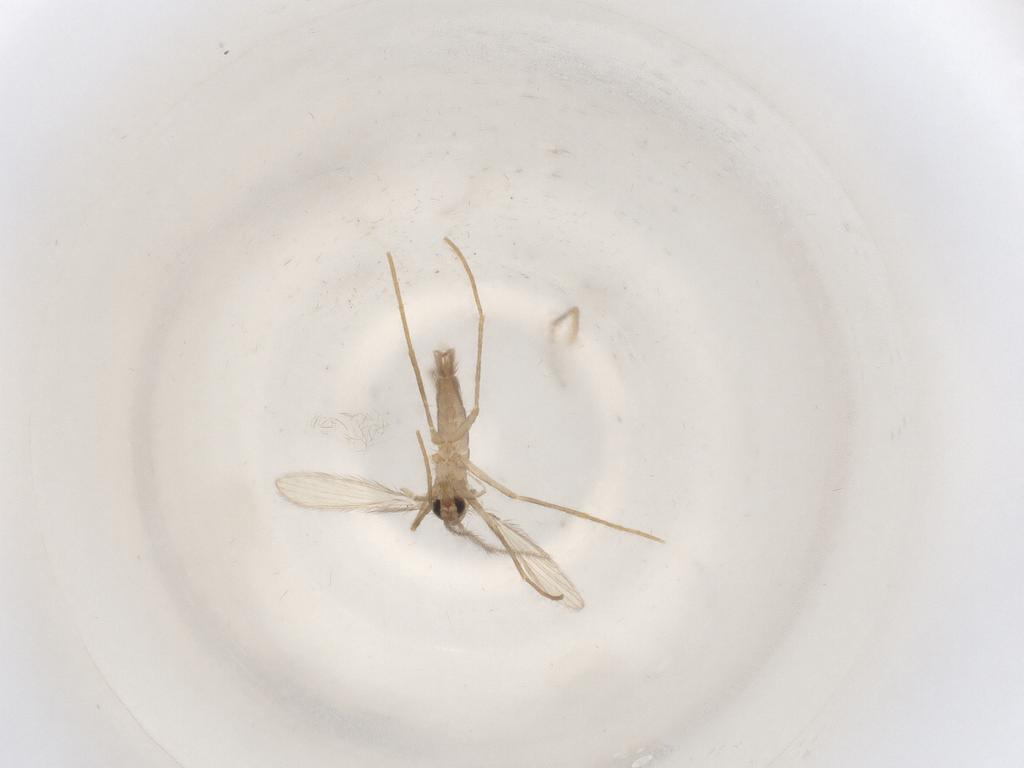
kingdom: Animalia
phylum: Arthropoda
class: Insecta
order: Diptera
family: Psychodidae
